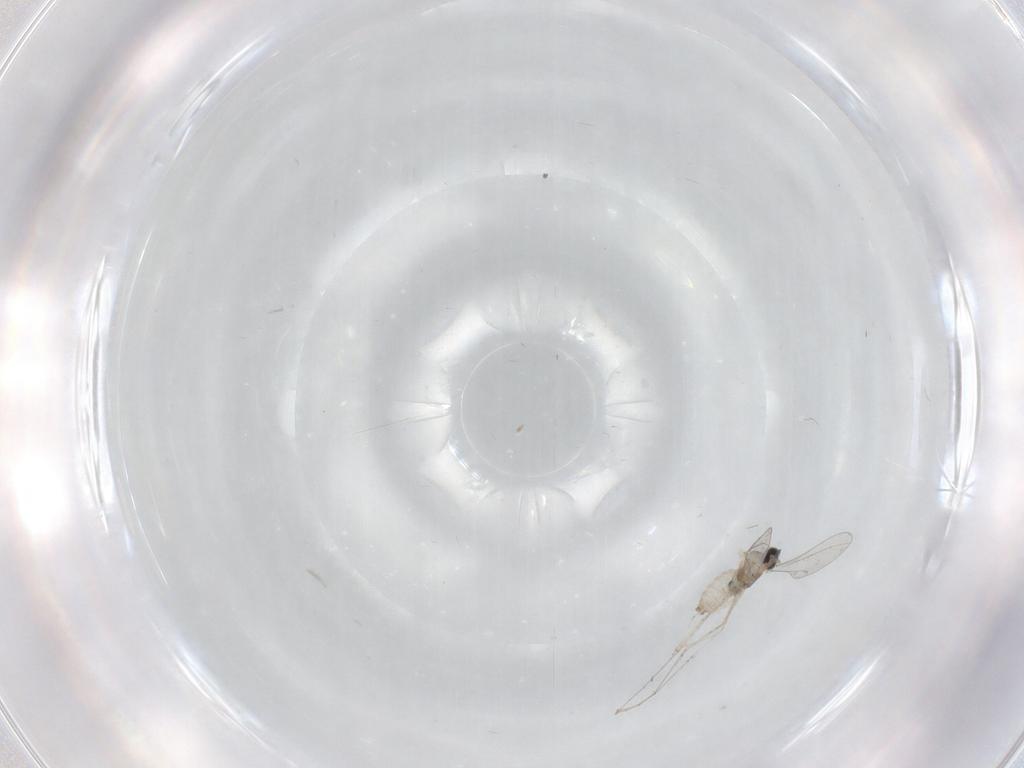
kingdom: Animalia
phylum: Arthropoda
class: Insecta
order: Diptera
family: Cecidomyiidae
